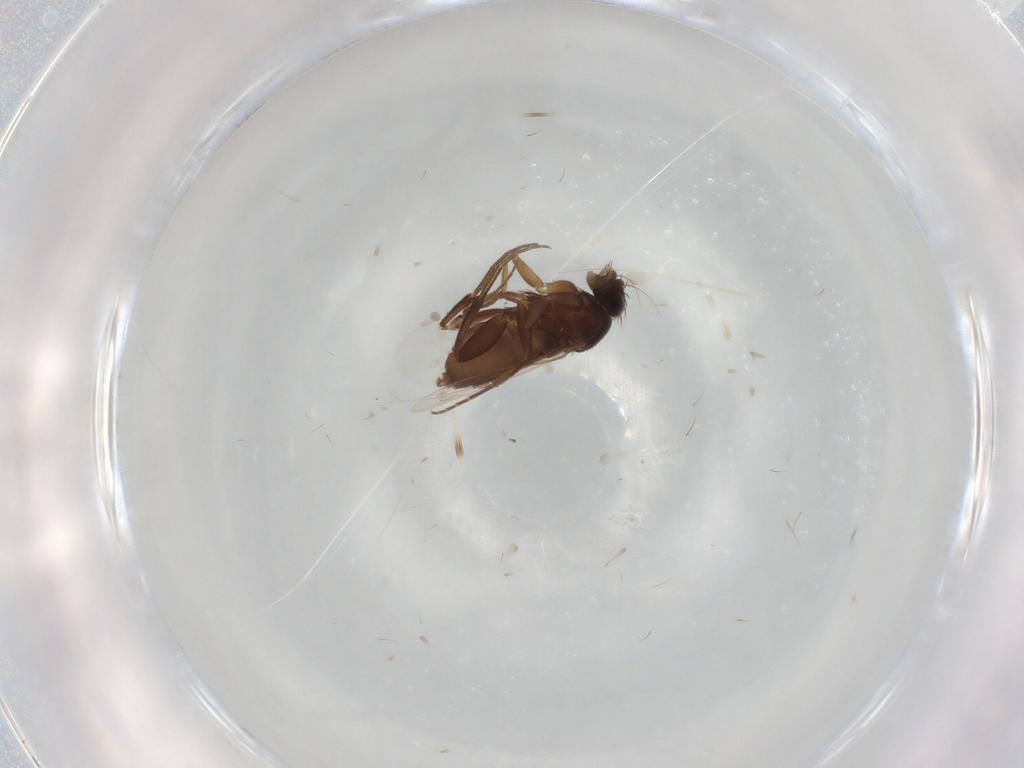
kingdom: Animalia
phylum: Arthropoda
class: Insecta
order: Diptera
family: Phoridae
